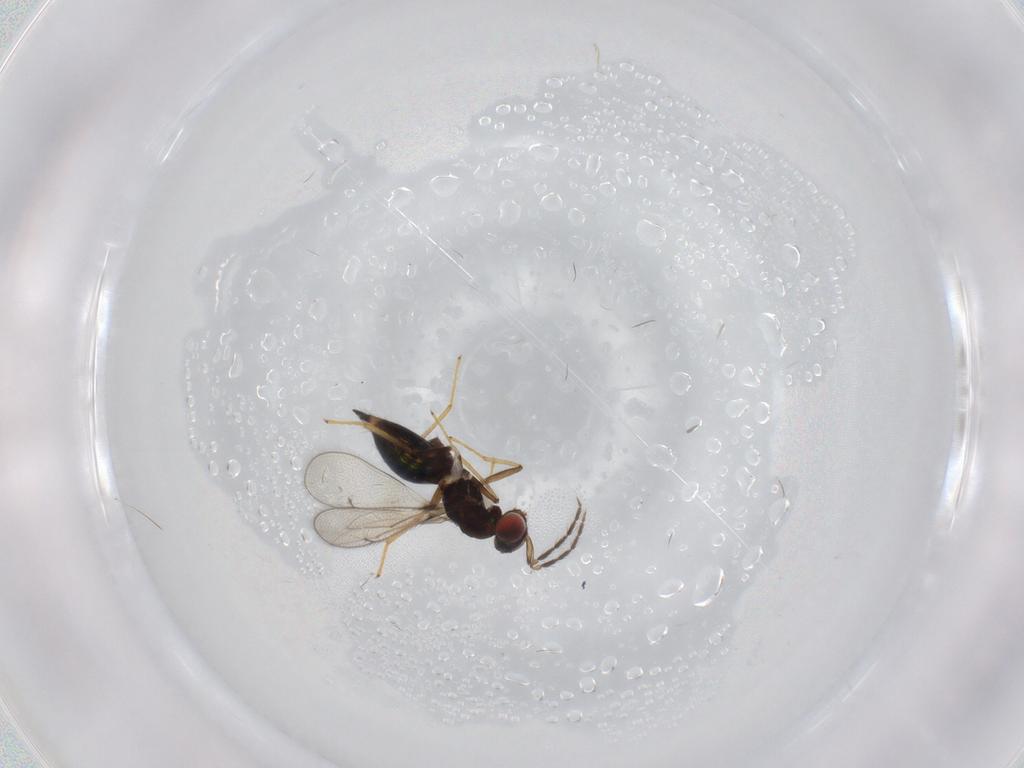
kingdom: Animalia
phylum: Arthropoda
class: Insecta
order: Hymenoptera
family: Eulophidae
